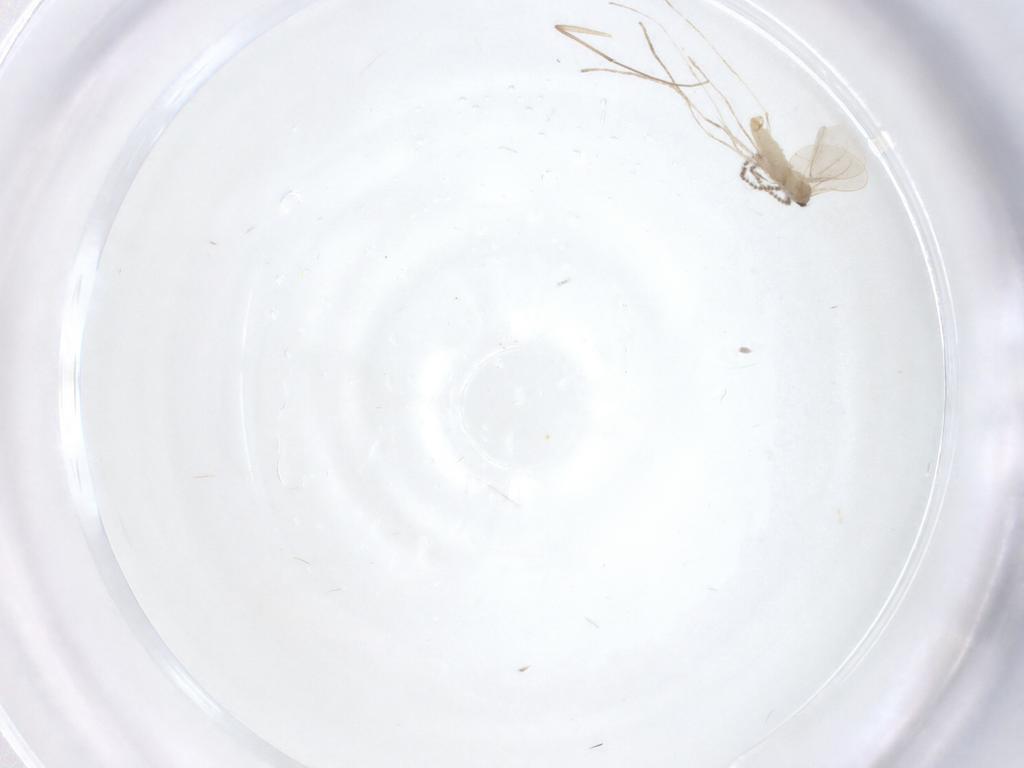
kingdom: Animalia
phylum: Arthropoda
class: Insecta
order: Diptera
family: Cecidomyiidae
